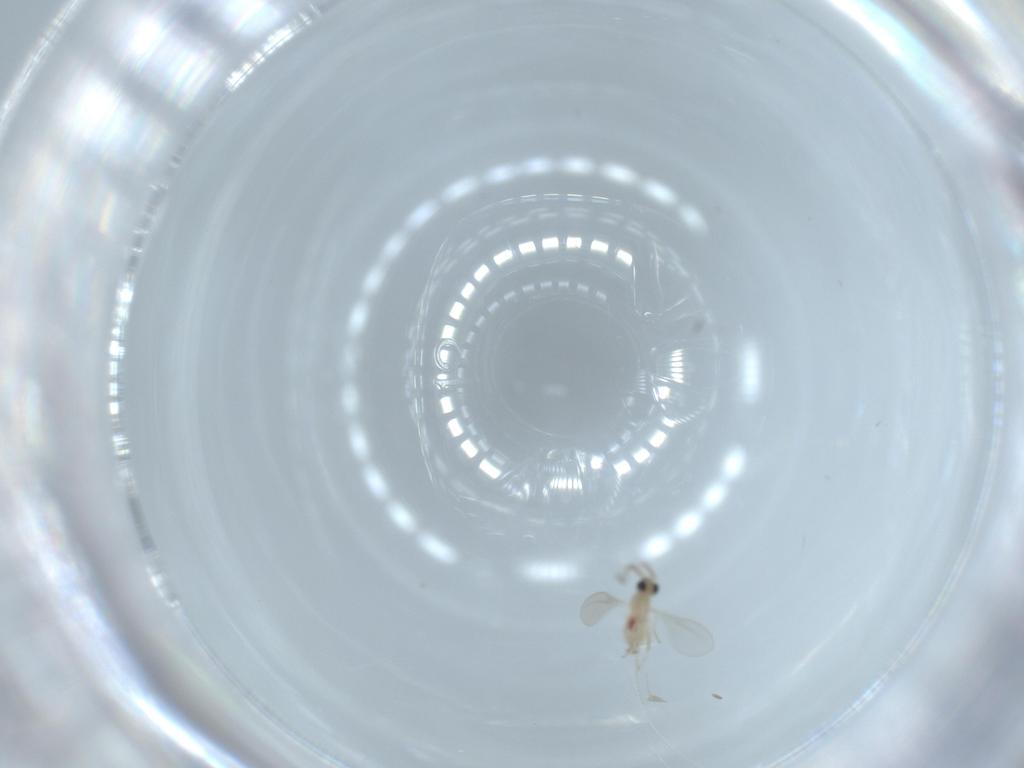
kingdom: Animalia
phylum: Arthropoda
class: Insecta
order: Diptera
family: Cecidomyiidae
